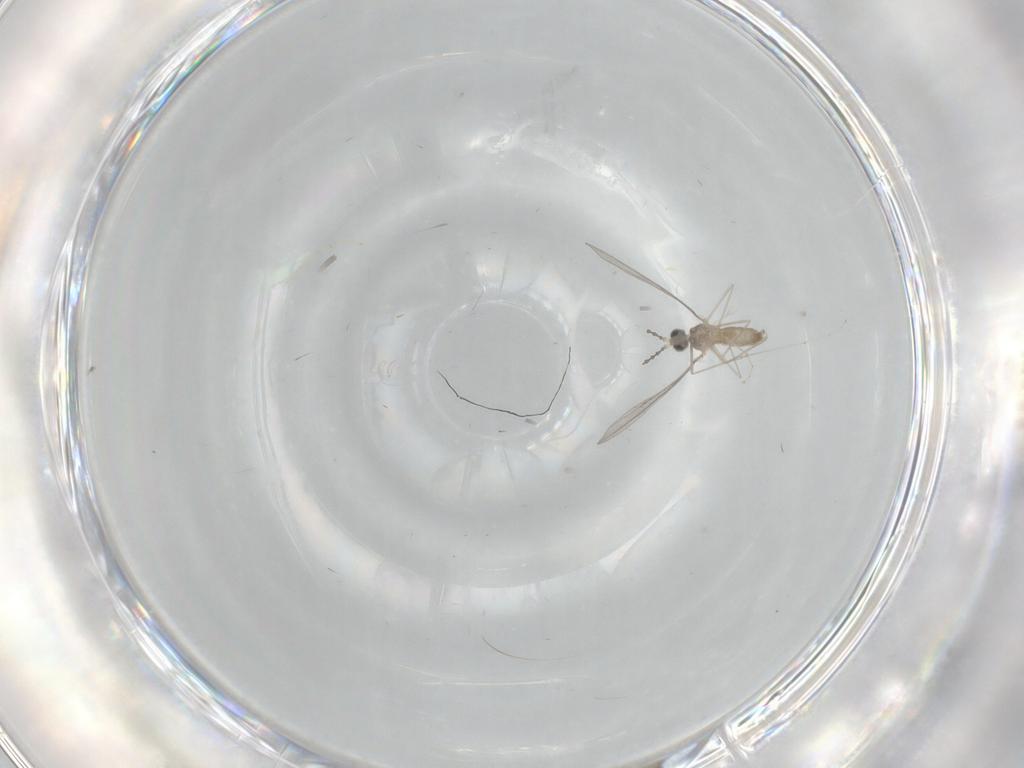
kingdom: Animalia
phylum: Arthropoda
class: Insecta
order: Diptera
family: Cecidomyiidae
